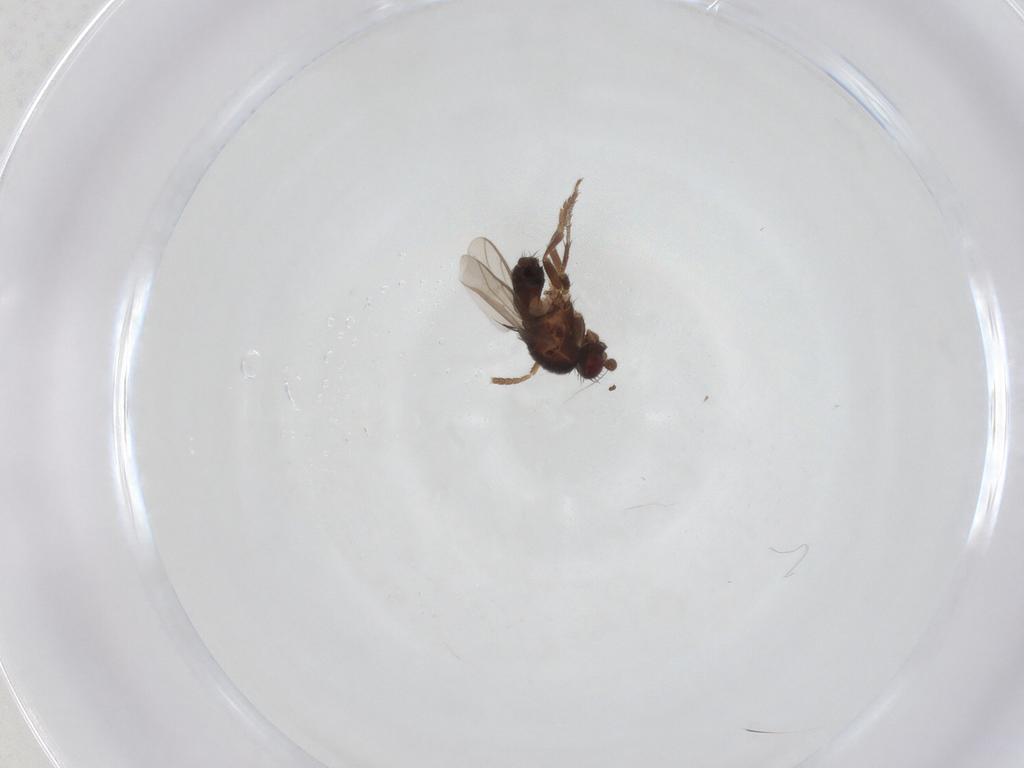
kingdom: Animalia
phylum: Arthropoda
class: Insecta
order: Diptera
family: Sphaeroceridae
